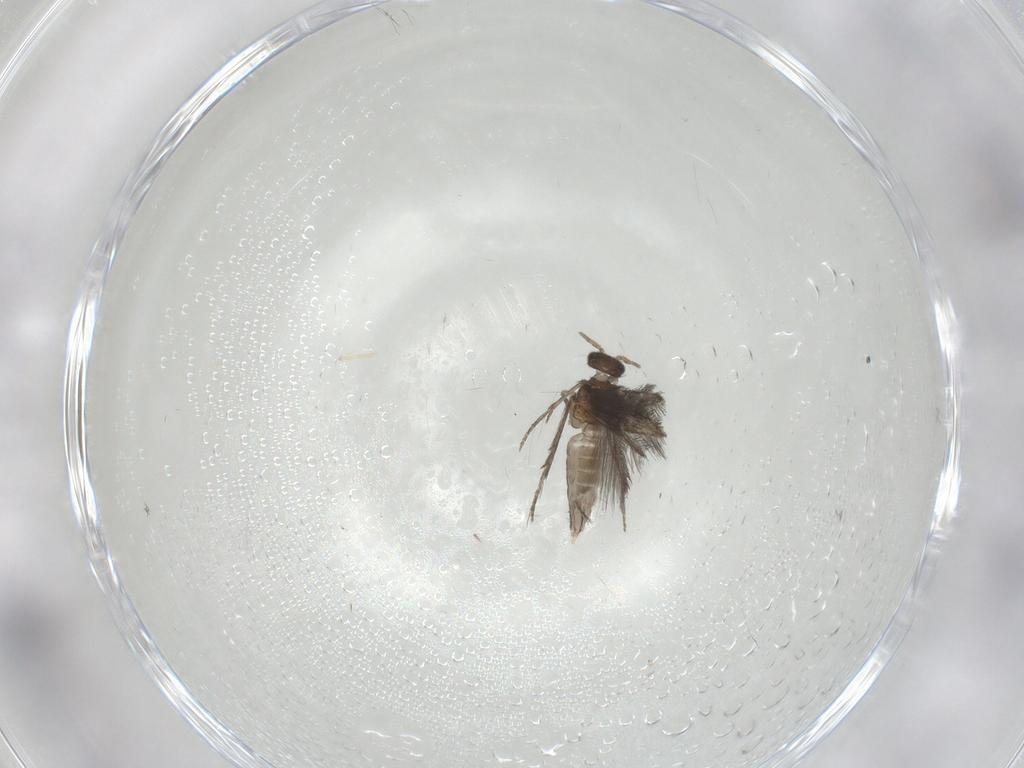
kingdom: Animalia
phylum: Arthropoda
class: Insecta
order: Trichoptera
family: Hydroptilidae
